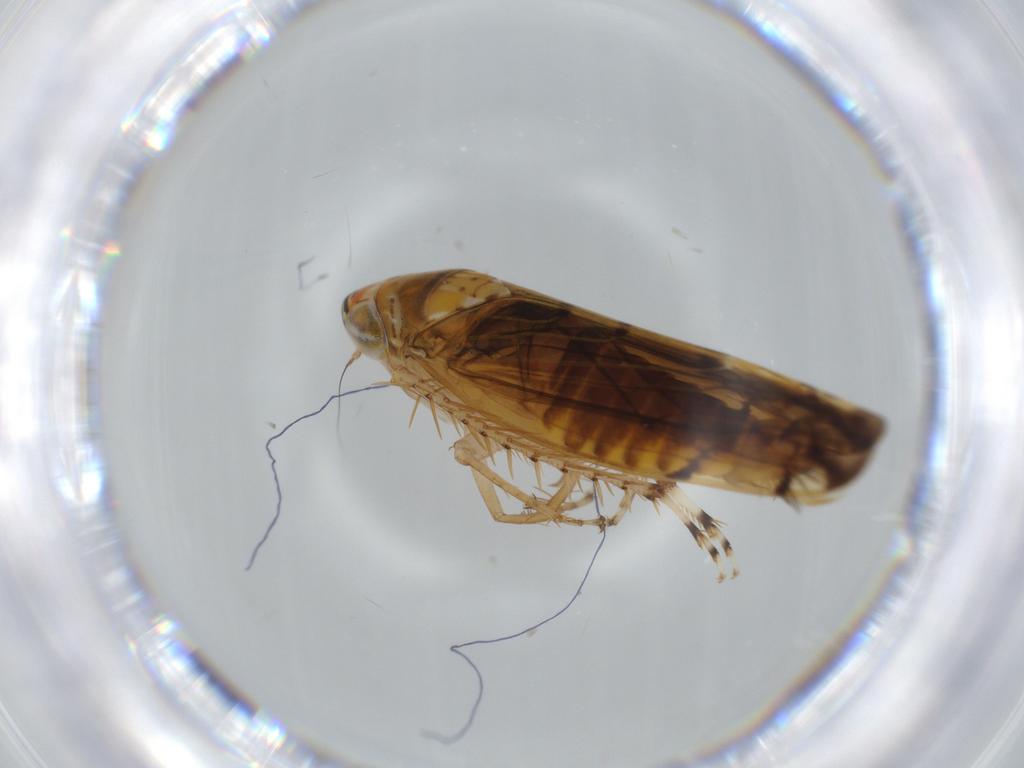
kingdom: Animalia
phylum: Arthropoda
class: Insecta
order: Hemiptera
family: Cicadellidae
